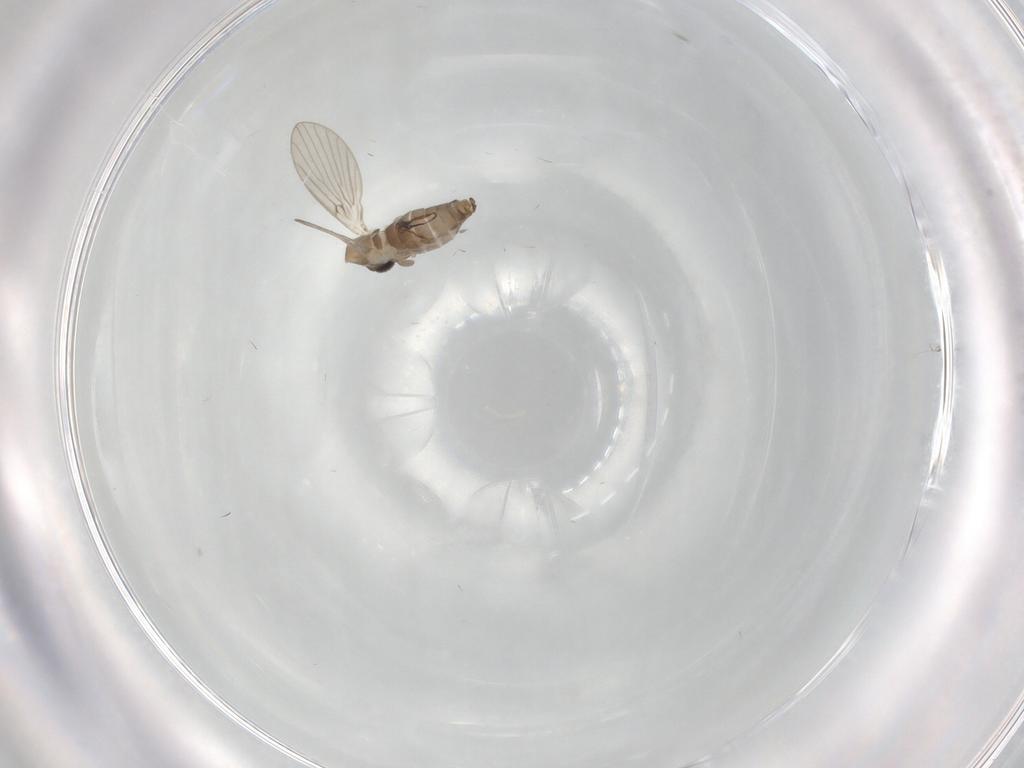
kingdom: Animalia
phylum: Arthropoda
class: Insecta
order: Diptera
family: Psychodidae
